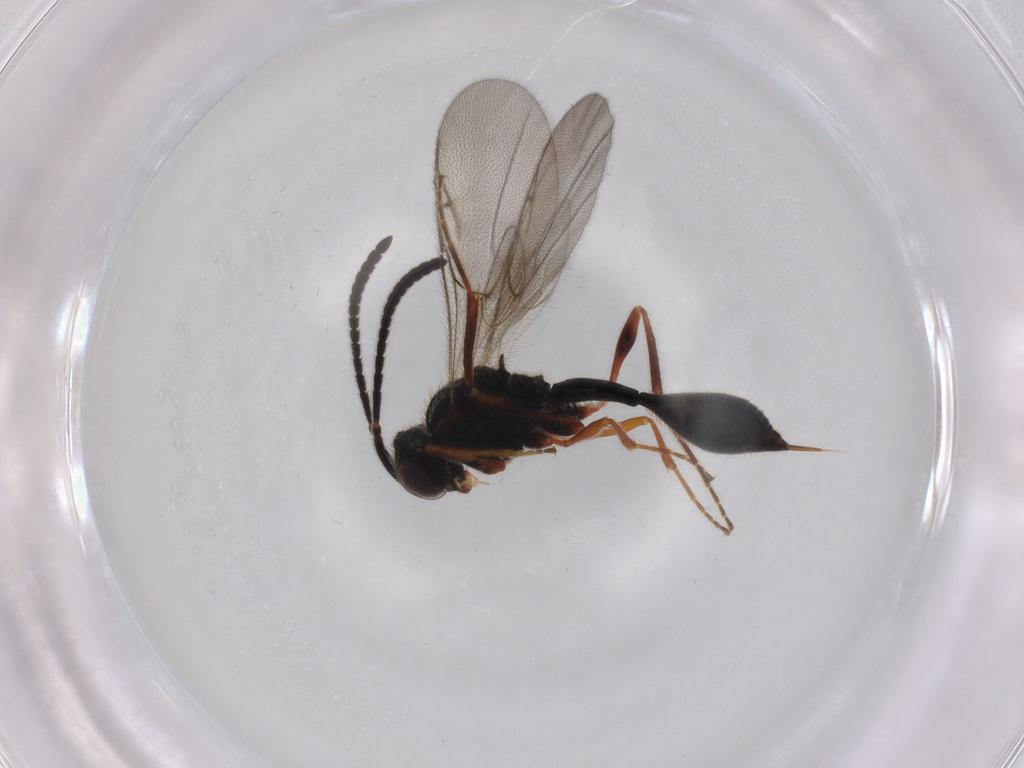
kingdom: Animalia
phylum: Arthropoda
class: Insecta
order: Hymenoptera
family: Diapriidae
